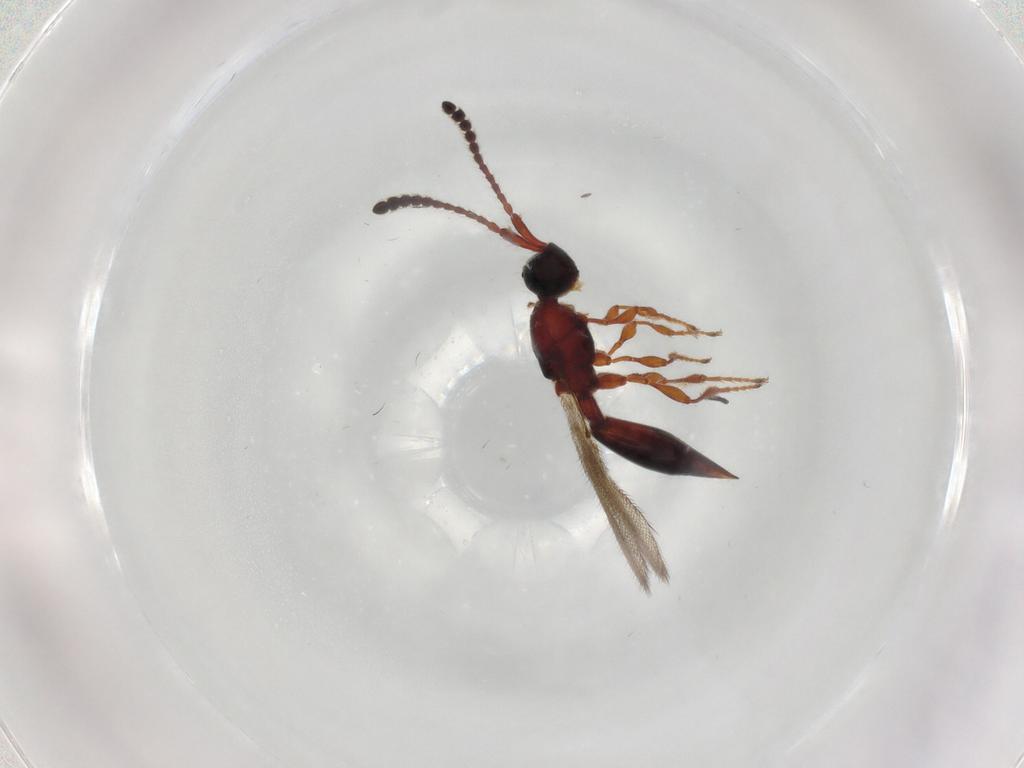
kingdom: Animalia
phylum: Arthropoda
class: Insecta
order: Hymenoptera
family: Diapriidae
